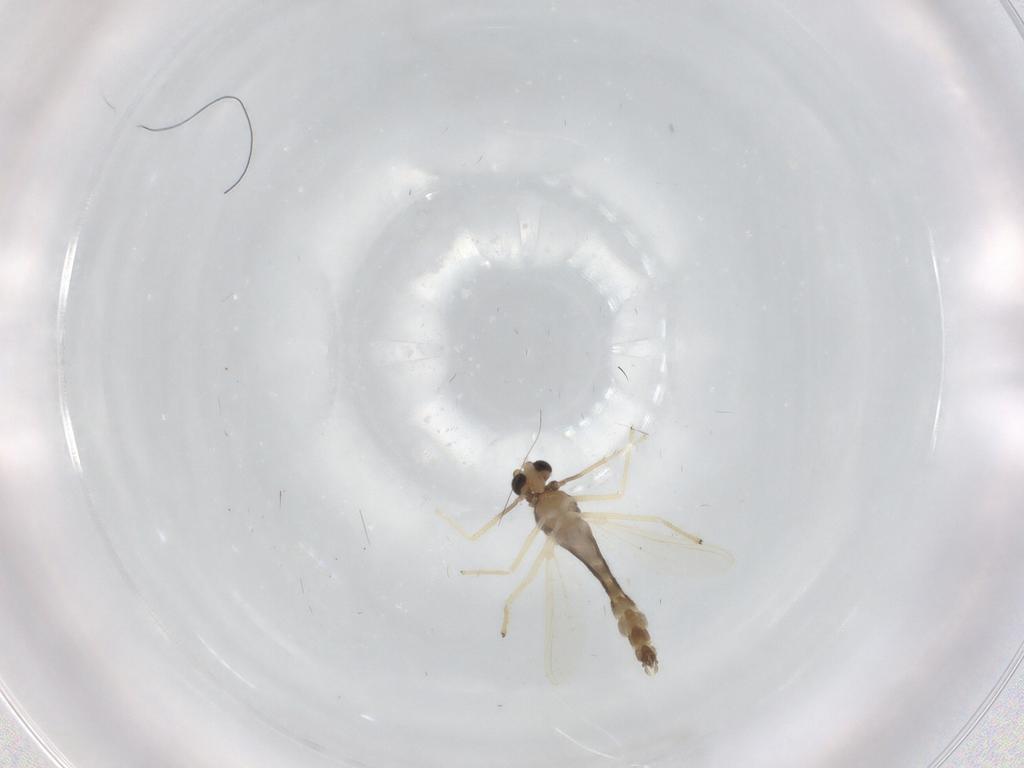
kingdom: Animalia
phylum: Arthropoda
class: Insecta
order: Diptera
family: Chironomidae
